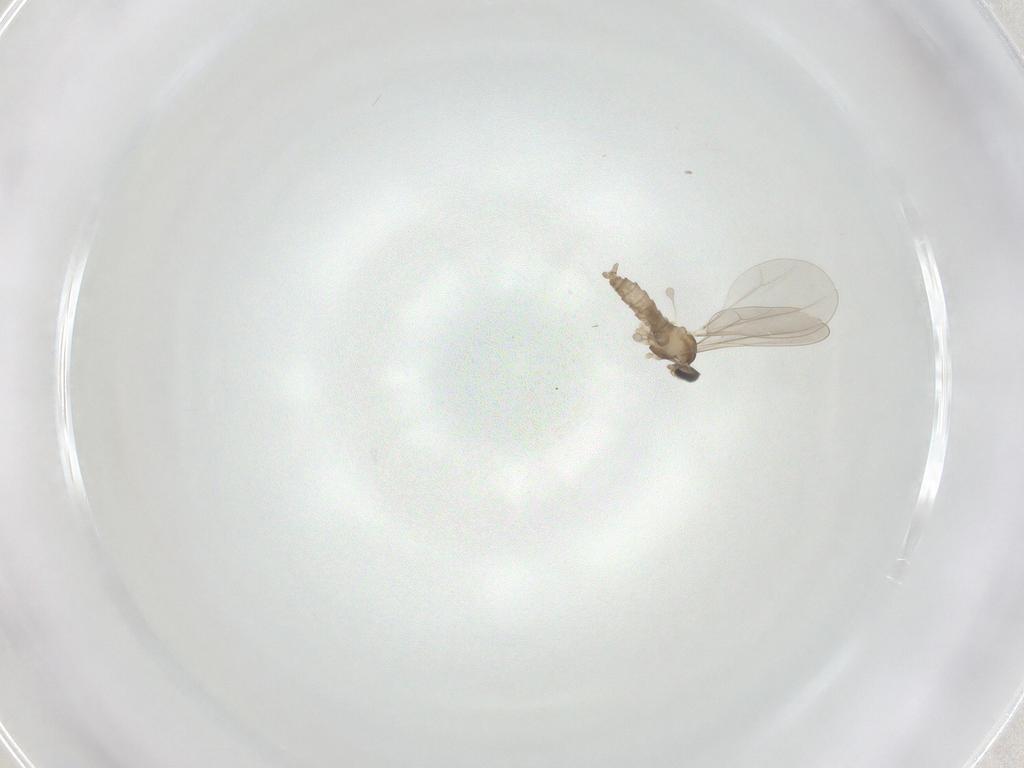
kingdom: Animalia
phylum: Arthropoda
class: Insecta
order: Diptera
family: Cecidomyiidae
